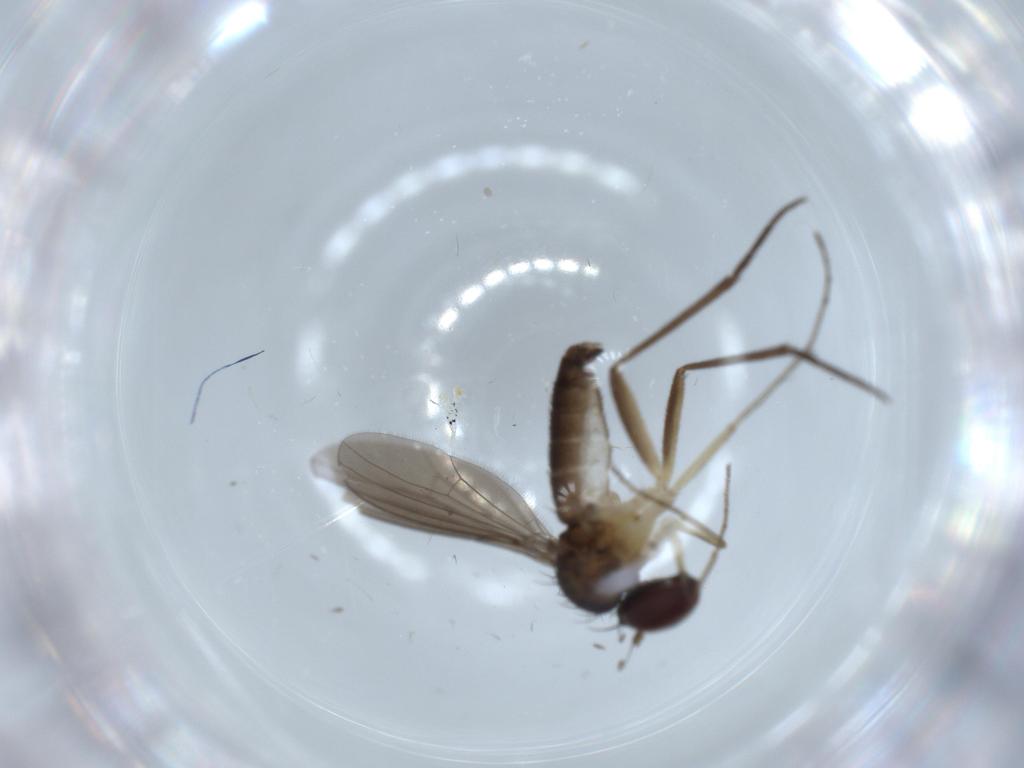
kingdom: Animalia
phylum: Arthropoda
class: Insecta
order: Diptera
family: Dolichopodidae
